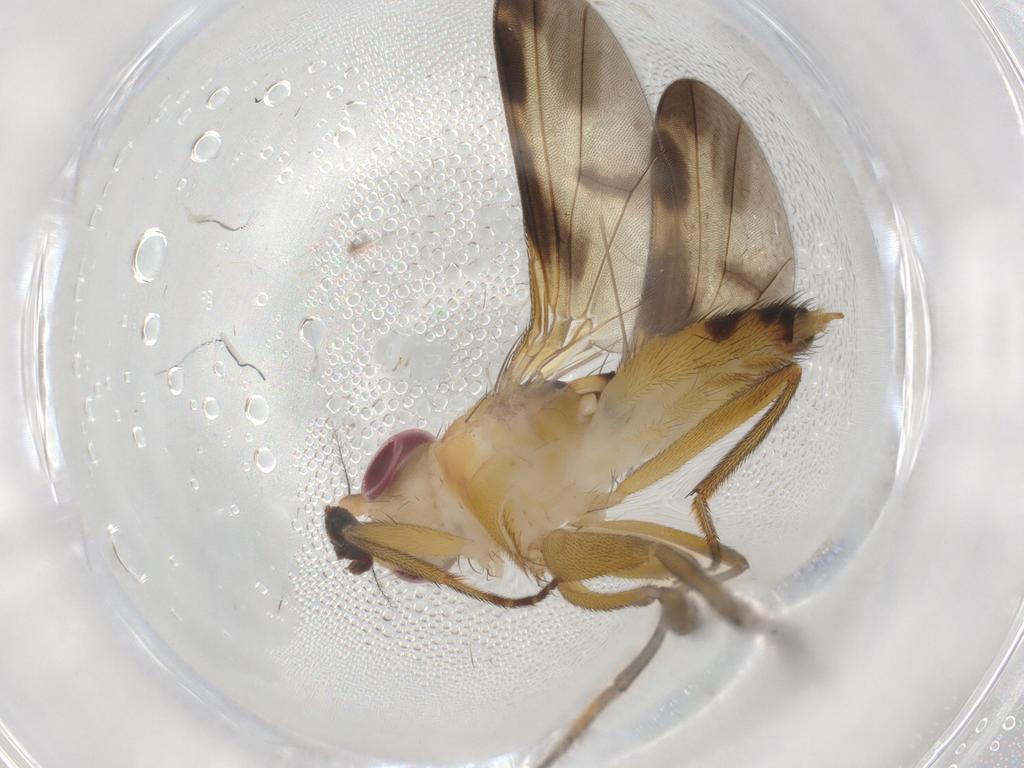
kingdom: Animalia
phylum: Arthropoda
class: Insecta
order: Diptera
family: Clusiidae
